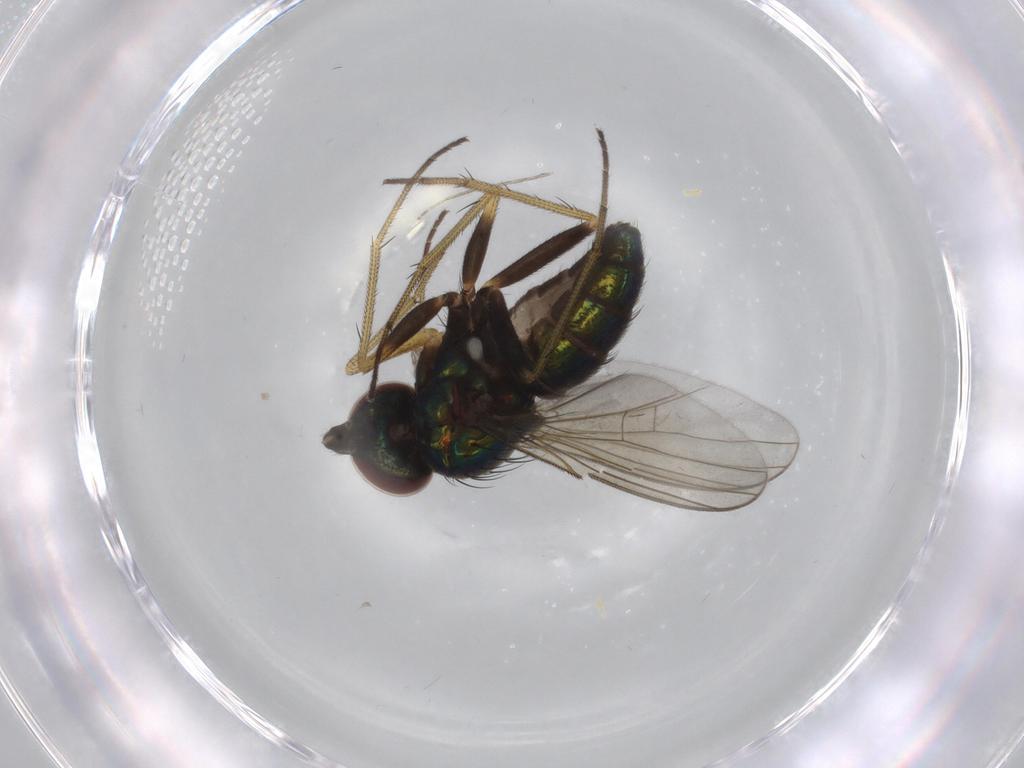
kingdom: Animalia
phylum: Arthropoda
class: Insecta
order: Diptera
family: Dolichopodidae
